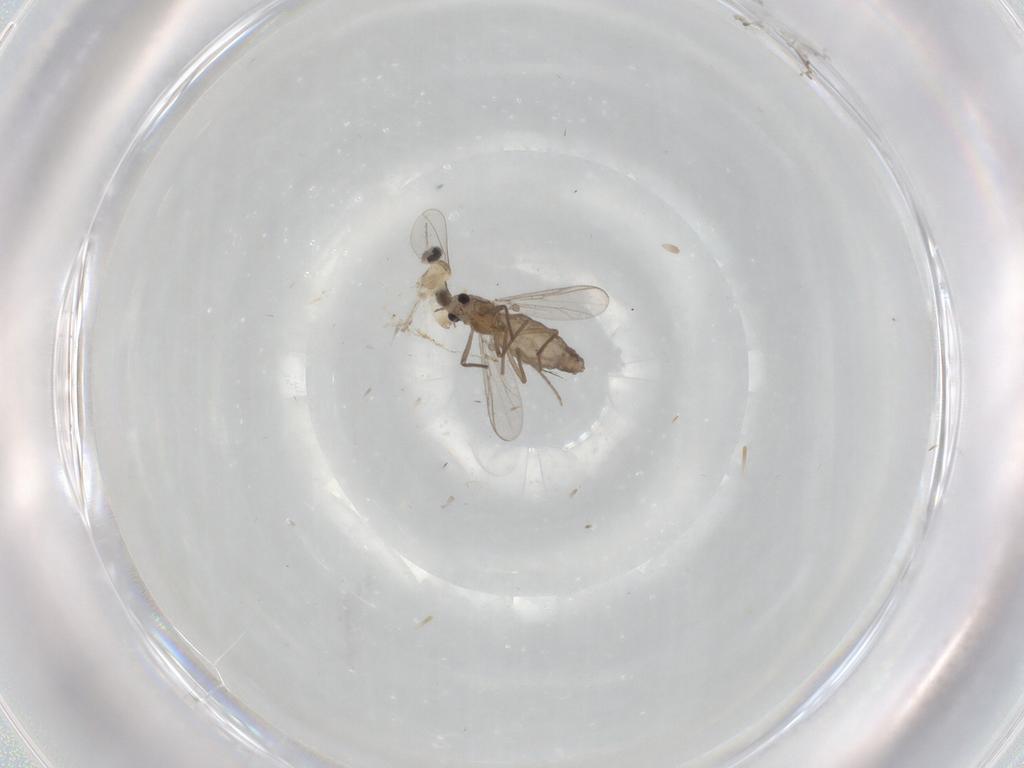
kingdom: Animalia
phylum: Arthropoda
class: Insecta
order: Diptera
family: Chironomidae
